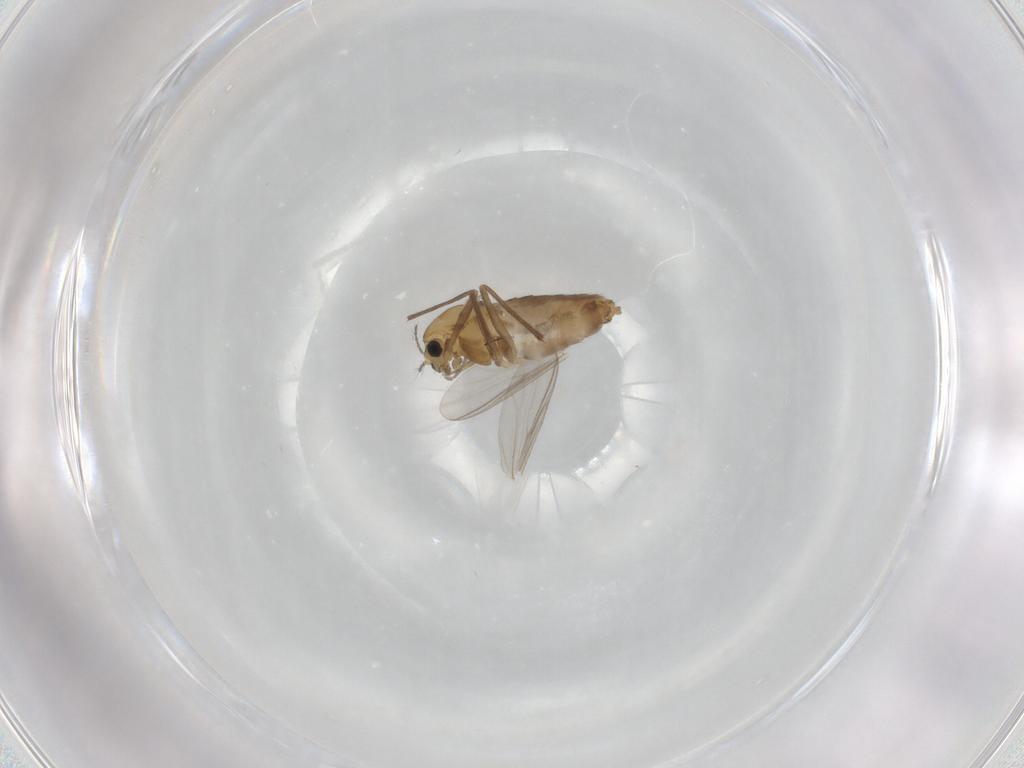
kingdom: Animalia
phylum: Arthropoda
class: Insecta
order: Diptera
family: Chironomidae
